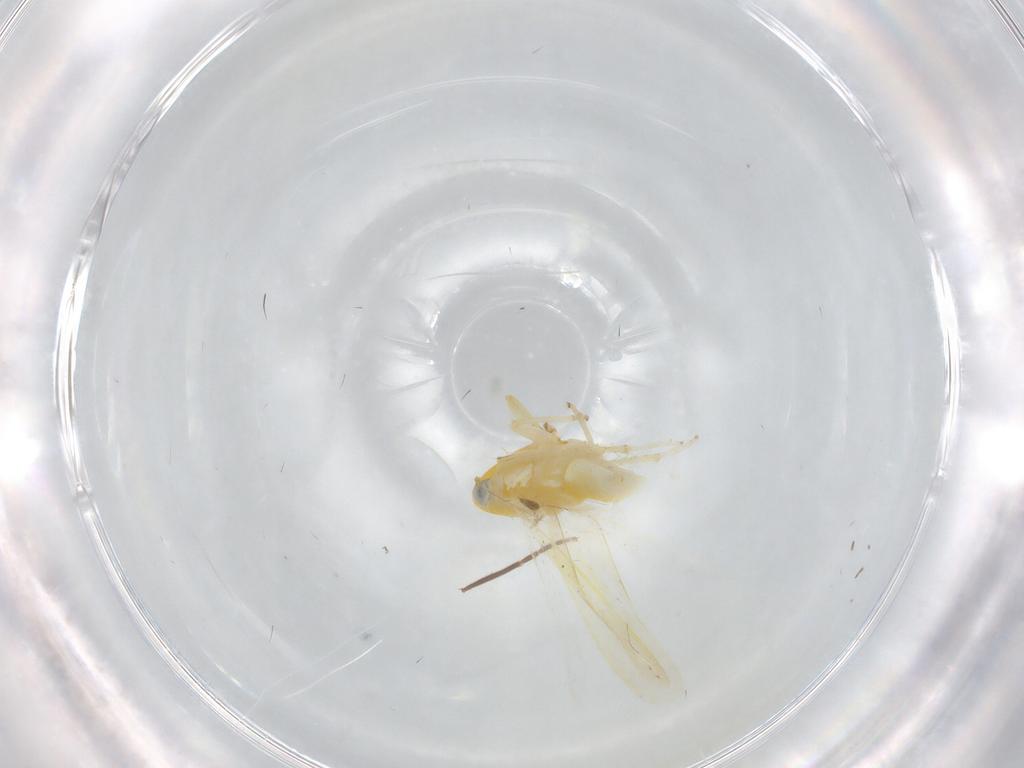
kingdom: Animalia
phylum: Arthropoda
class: Insecta
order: Hemiptera
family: Cicadellidae
